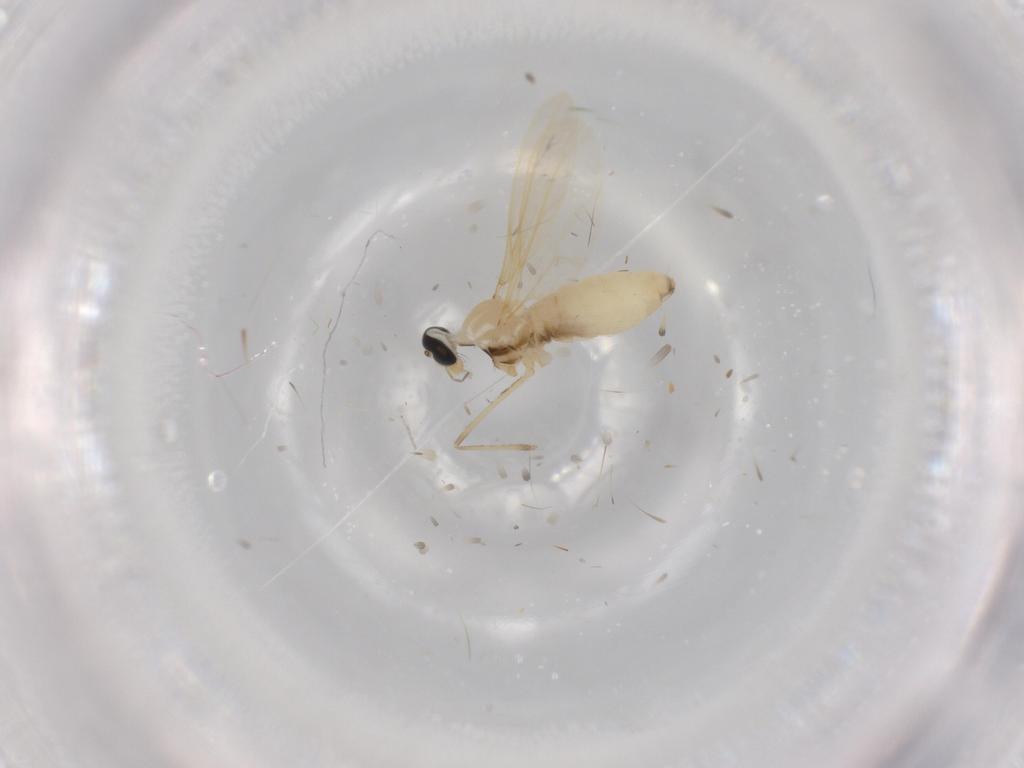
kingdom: Animalia
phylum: Arthropoda
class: Insecta
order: Diptera
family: Cecidomyiidae
